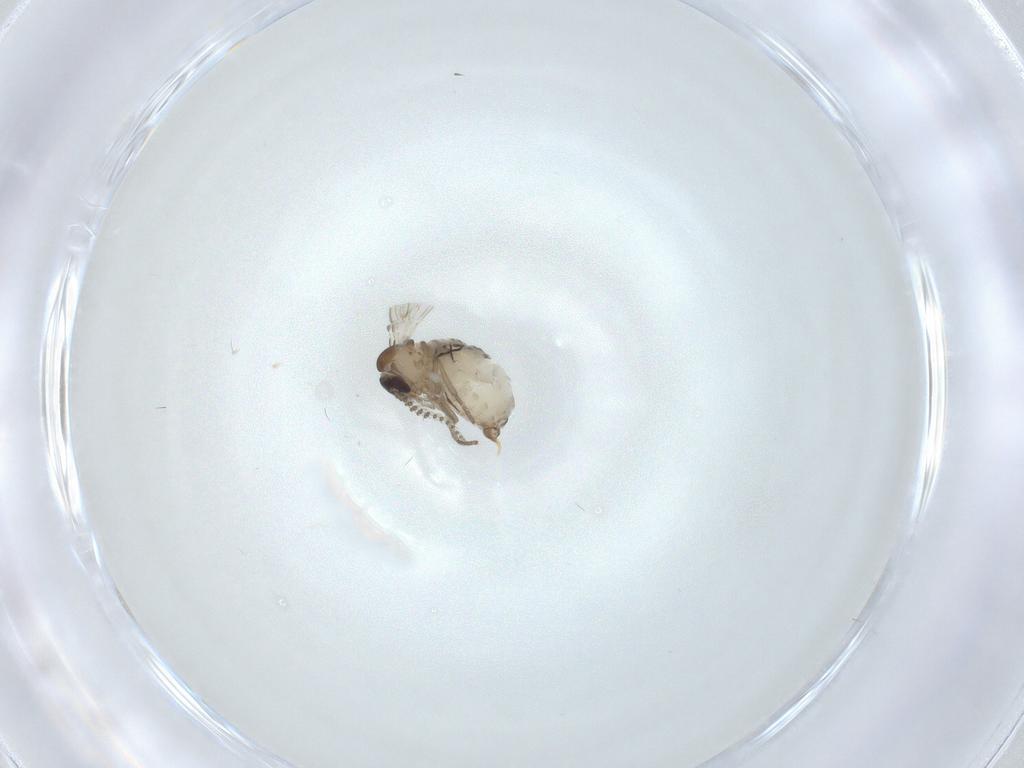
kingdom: Animalia
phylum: Arthropoda
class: Insecta
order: Diptera
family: Psychodidae
